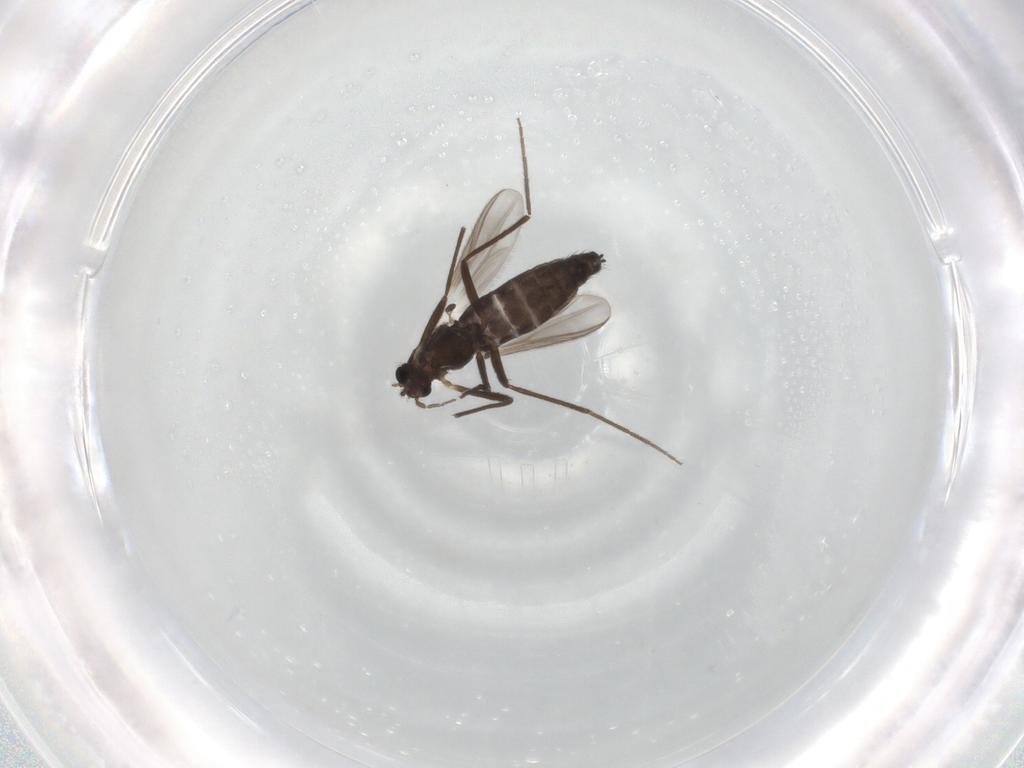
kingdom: Animalia
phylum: Arthropoda
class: Insecta
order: Diptera
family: Chironomidae
